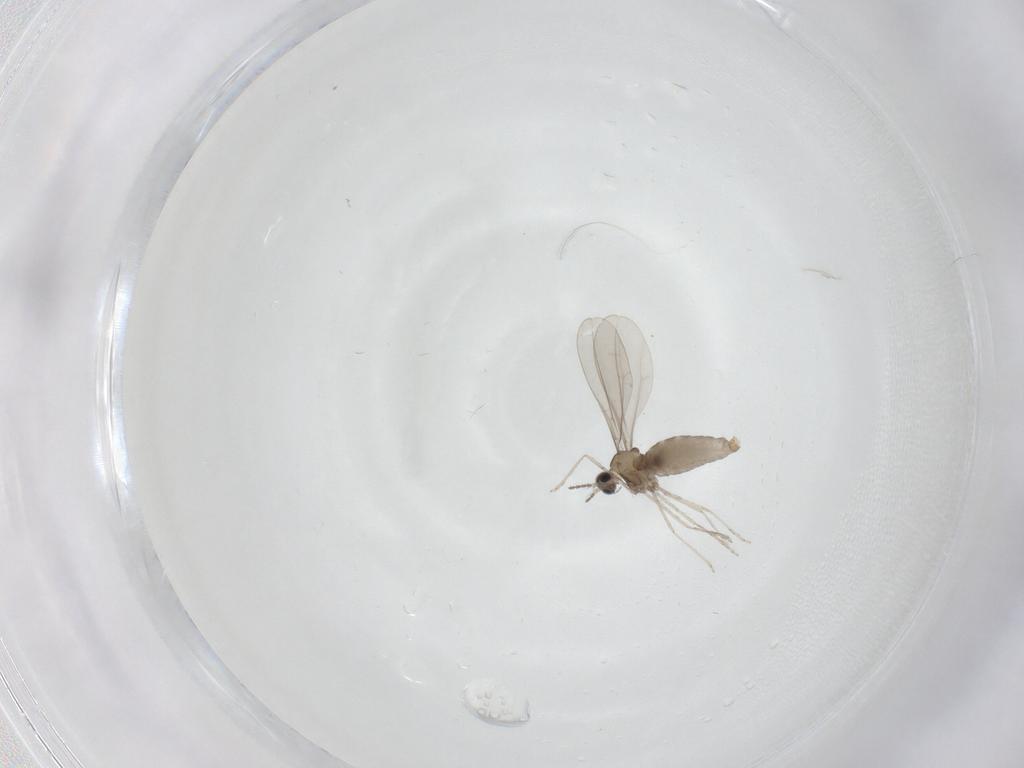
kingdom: Animalia
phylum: Arthropoda
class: Insecta
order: Diptera
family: Cecidomyiidae
